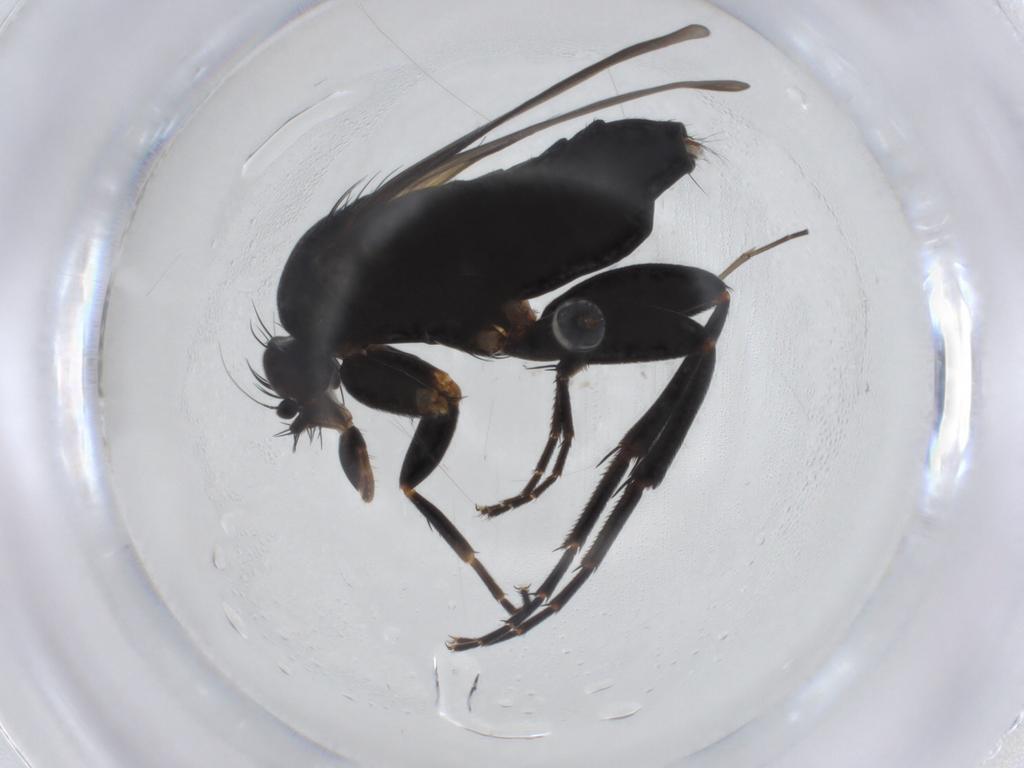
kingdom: Animalia
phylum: Arthropoda
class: Insecta
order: Diptera
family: Phoridae
